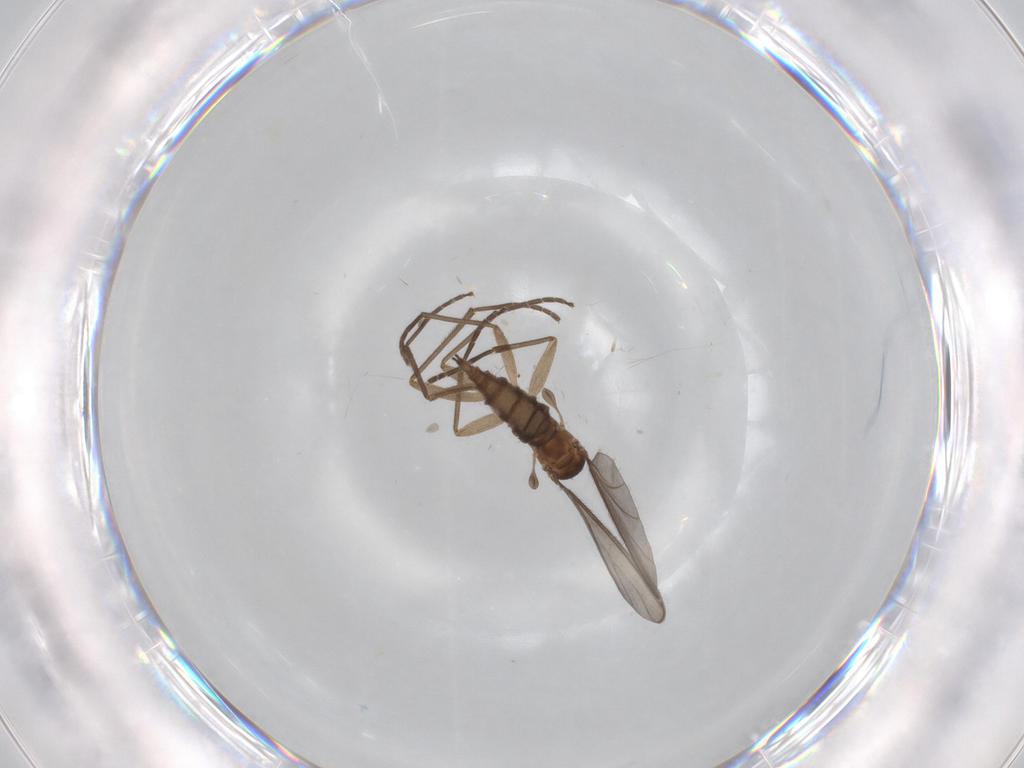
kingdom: Animalia
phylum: Arthropoda
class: Insecta
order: Diptera
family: Sciaridae
